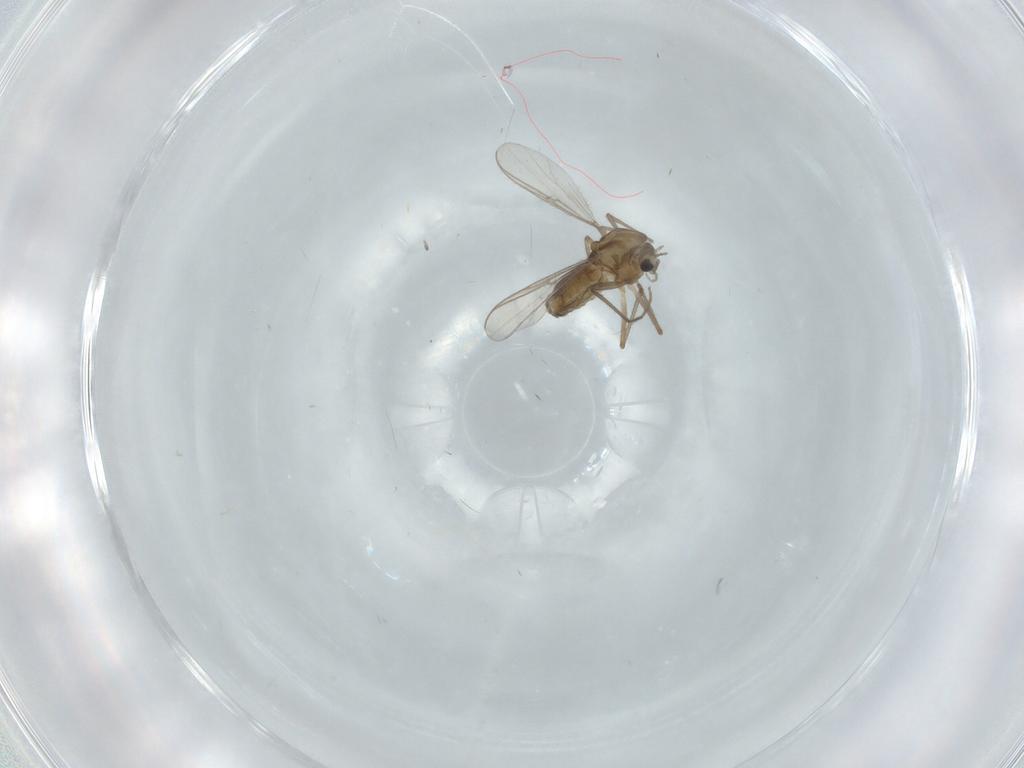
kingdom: Animalia
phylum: Arthropoda
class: Insecta
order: Diptera
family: Chironomidae
